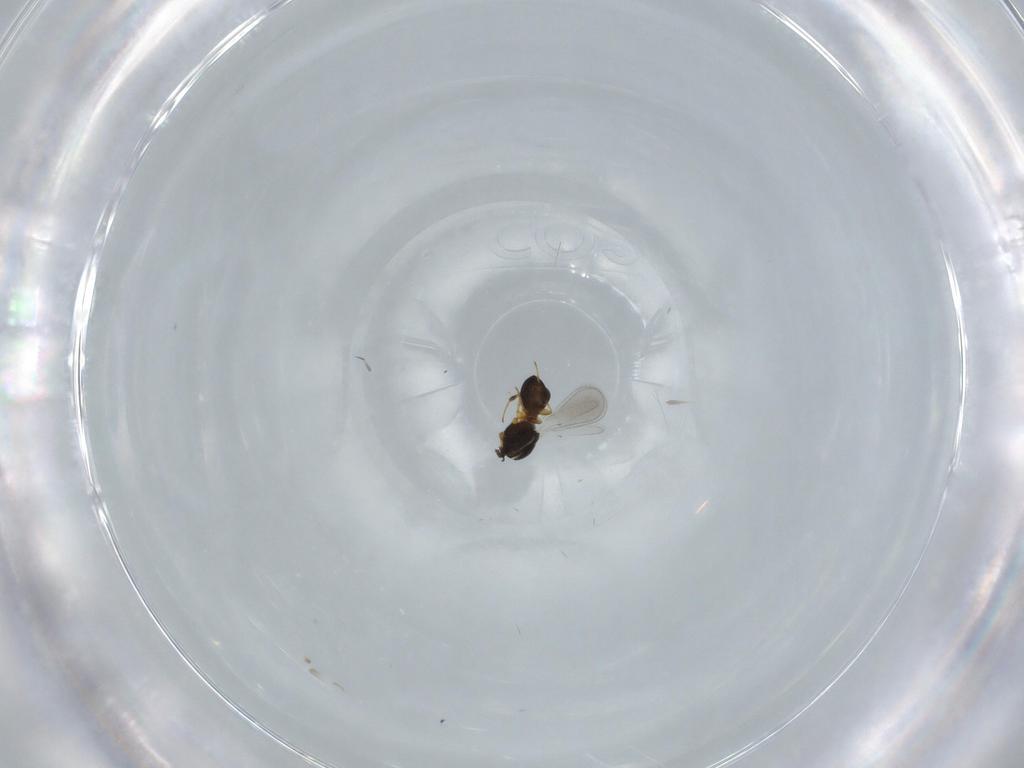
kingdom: Animalia
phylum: Arthropoda
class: Insecta
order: Hymenoptera
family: Platygastridae
